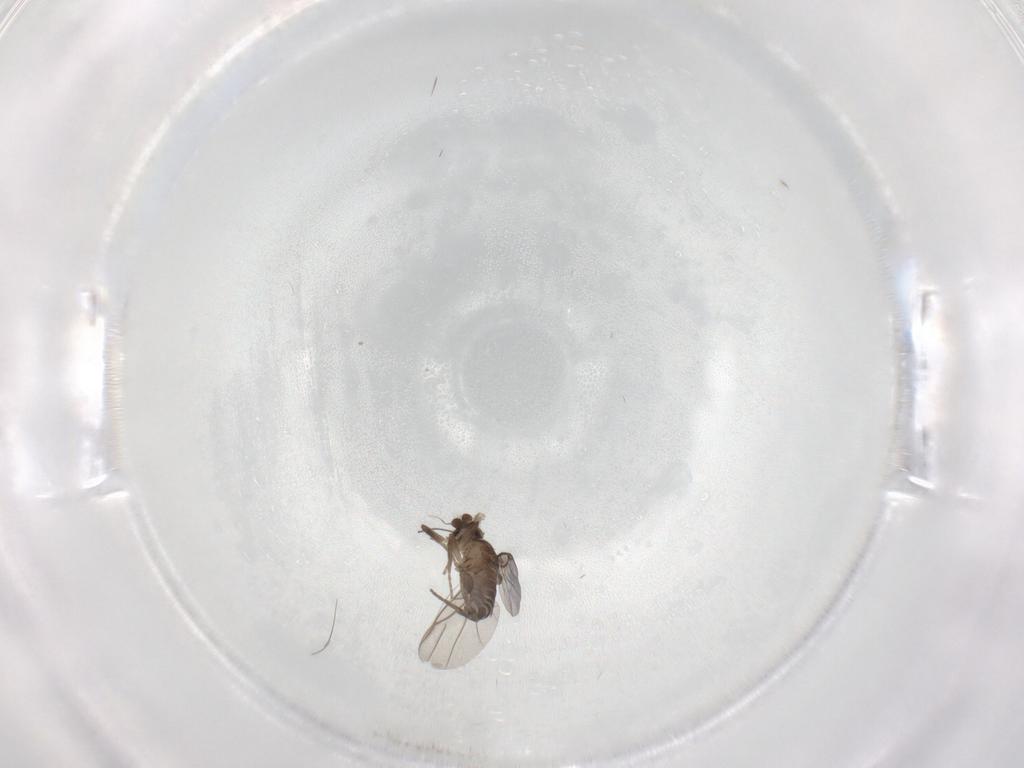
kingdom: Animalia
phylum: Arthropoda
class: Insecta
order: Diptera
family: Phoridae
